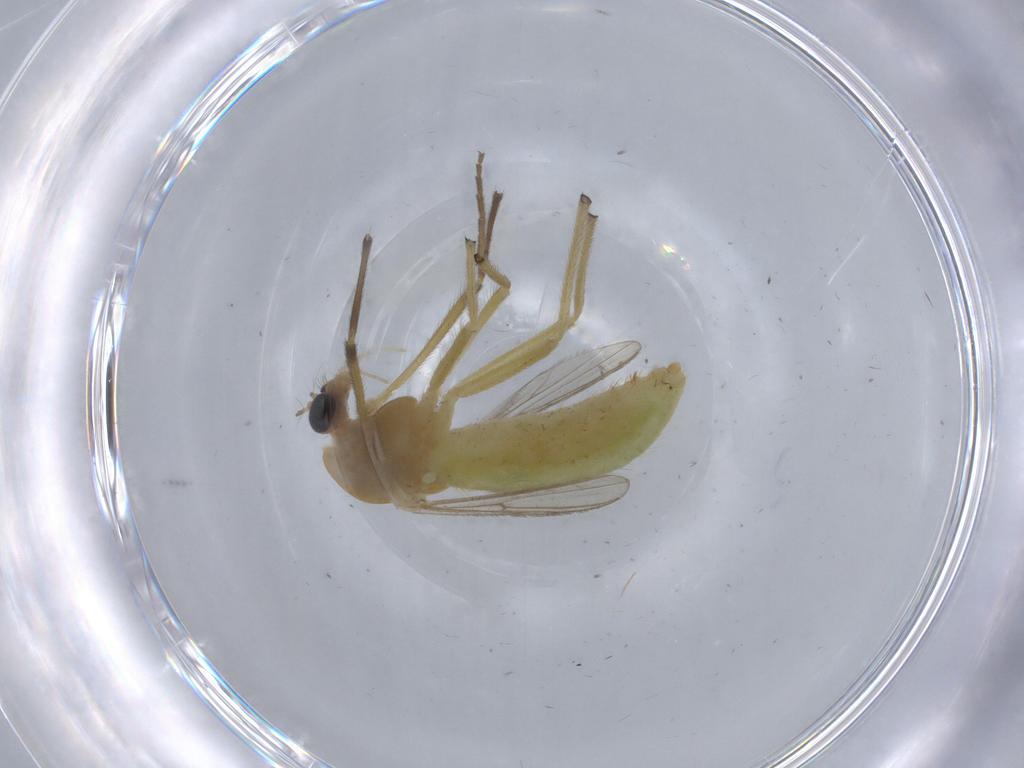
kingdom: Animalia
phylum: Arthropoda
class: Insecta
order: Diptera
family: Chironomidae
